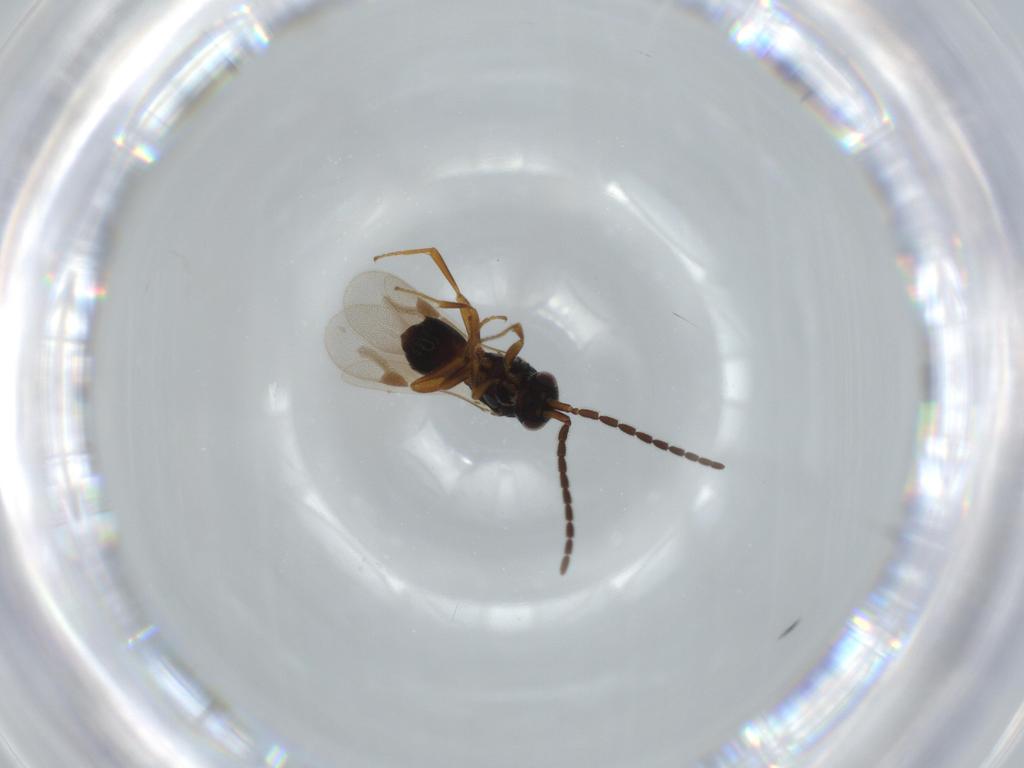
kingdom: Animalia
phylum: Arthropoda
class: Insecta
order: Hymenoptera
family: Megaspilidae
